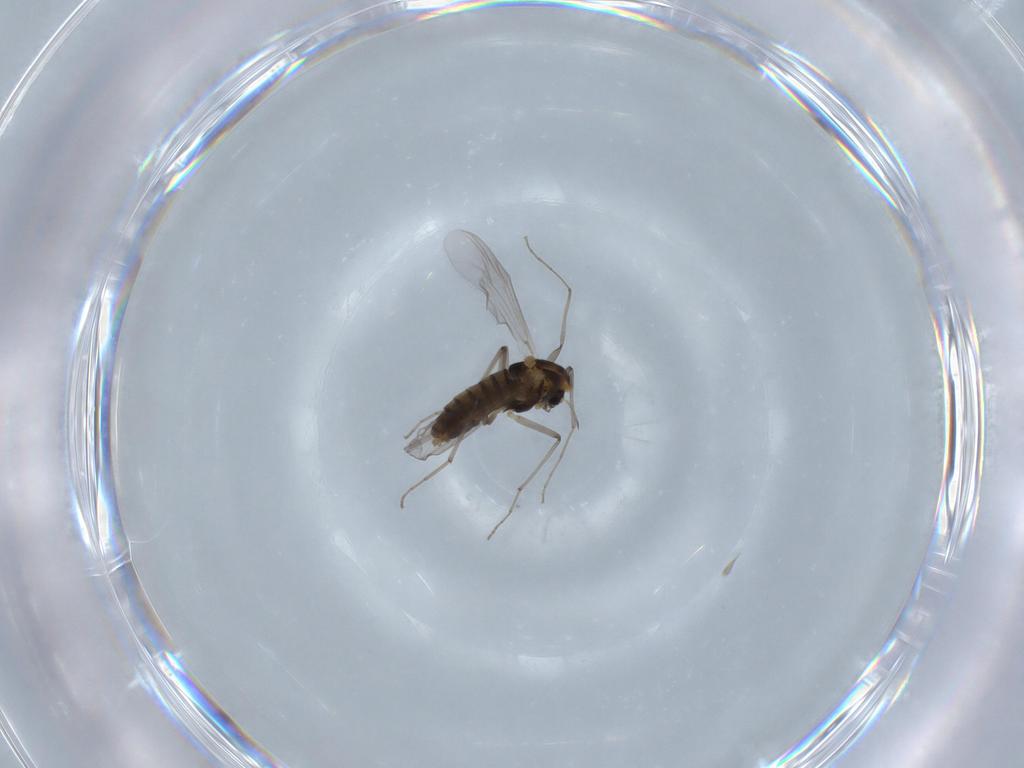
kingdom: Animalia
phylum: Arthropoda
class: Insecta
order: Diptera
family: Chironomidae
